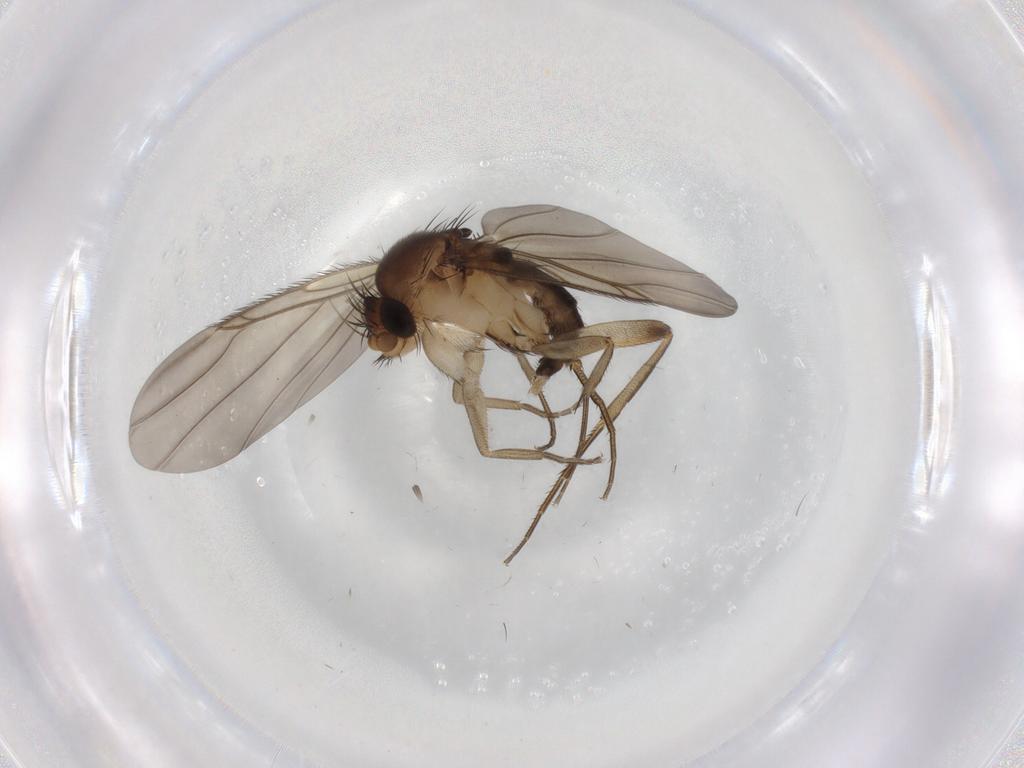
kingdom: Animalia
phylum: Arthropoda
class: Insecta
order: Diptera
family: Phoridae
